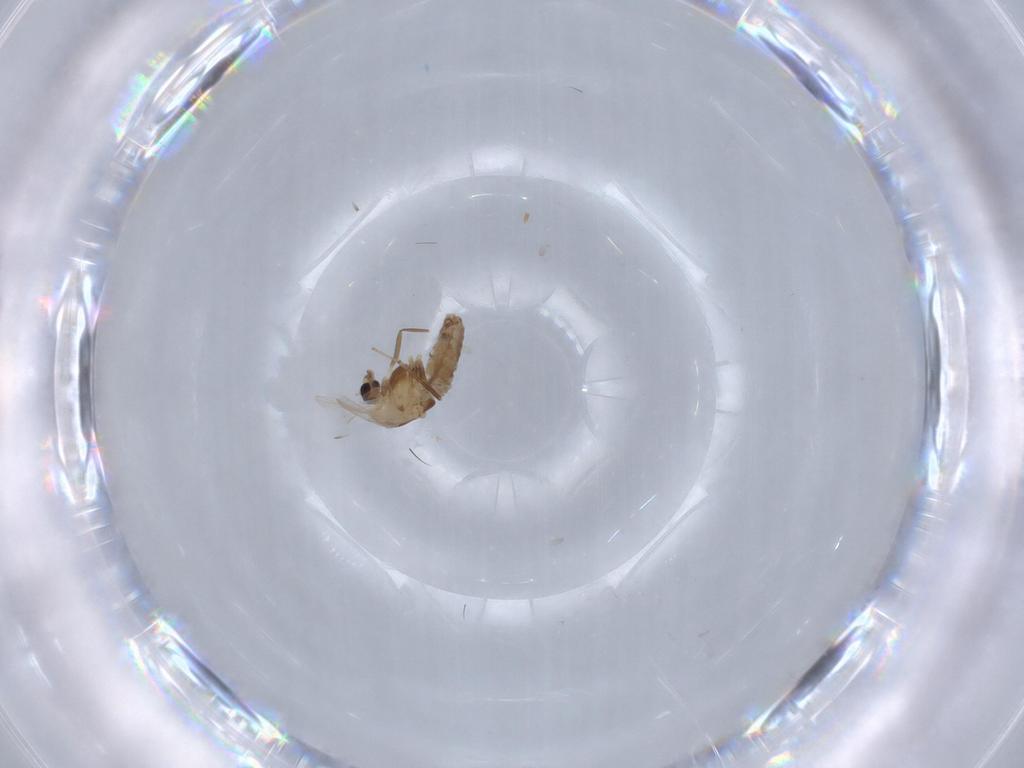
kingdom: Animalia
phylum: Arthropoda
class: Insecta
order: Diptera
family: Chironomidae
